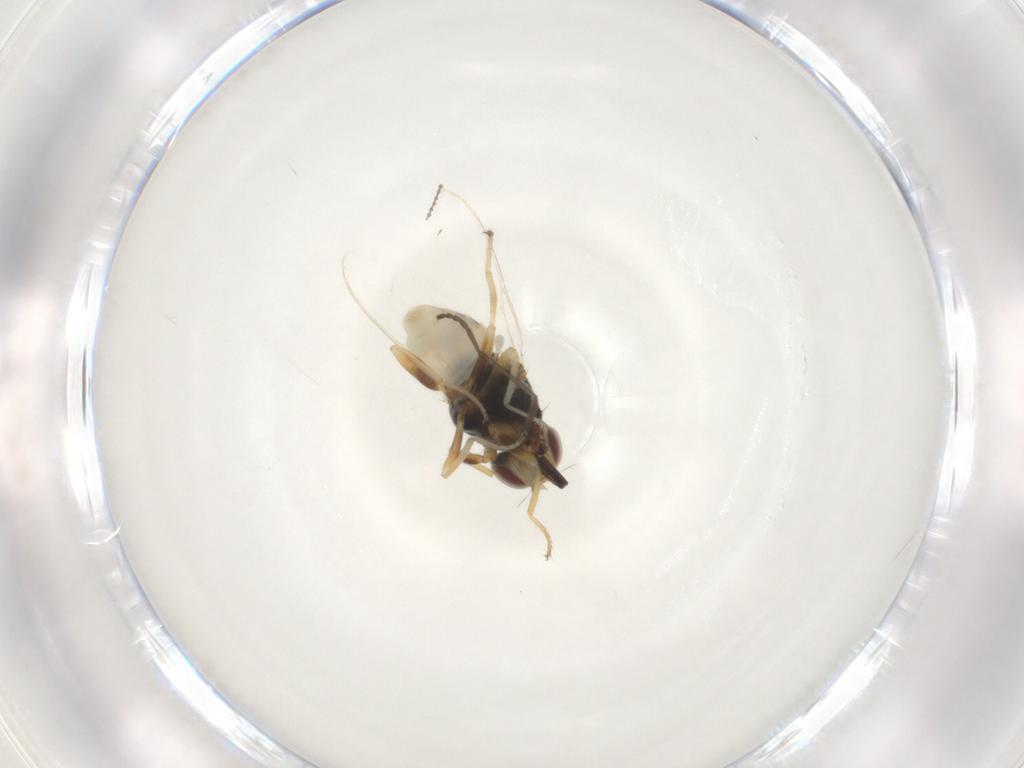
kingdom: Animalia
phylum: Arthropoda
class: Insecta
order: Diptera
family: Chloropidae
